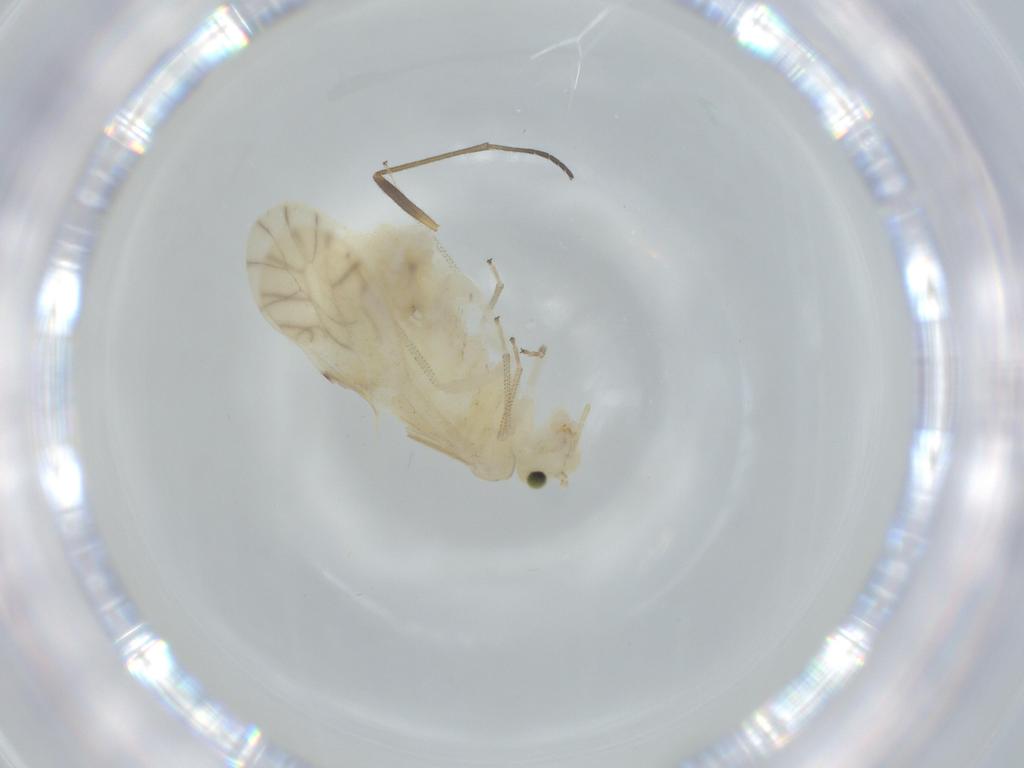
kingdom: Animalia
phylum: Arthropoda
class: Insecta
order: Psocodea
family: Caeciliusidae
